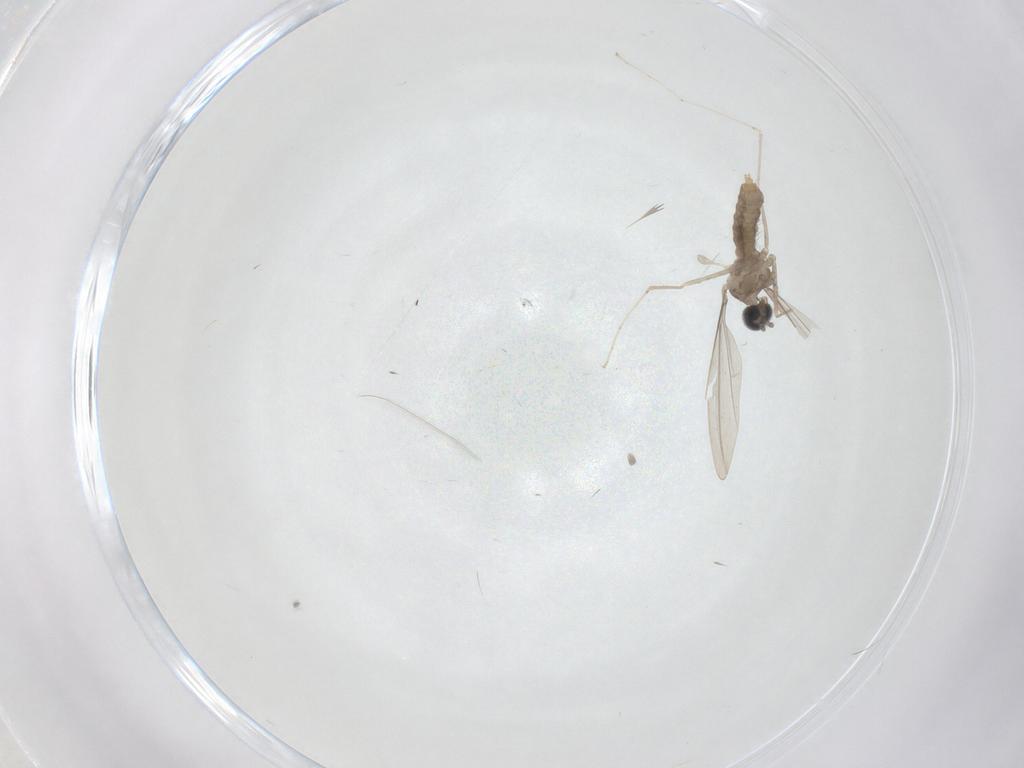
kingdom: Animalia
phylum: Arthropoda
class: Insecta
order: Diptera
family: Cecidomyiidae
